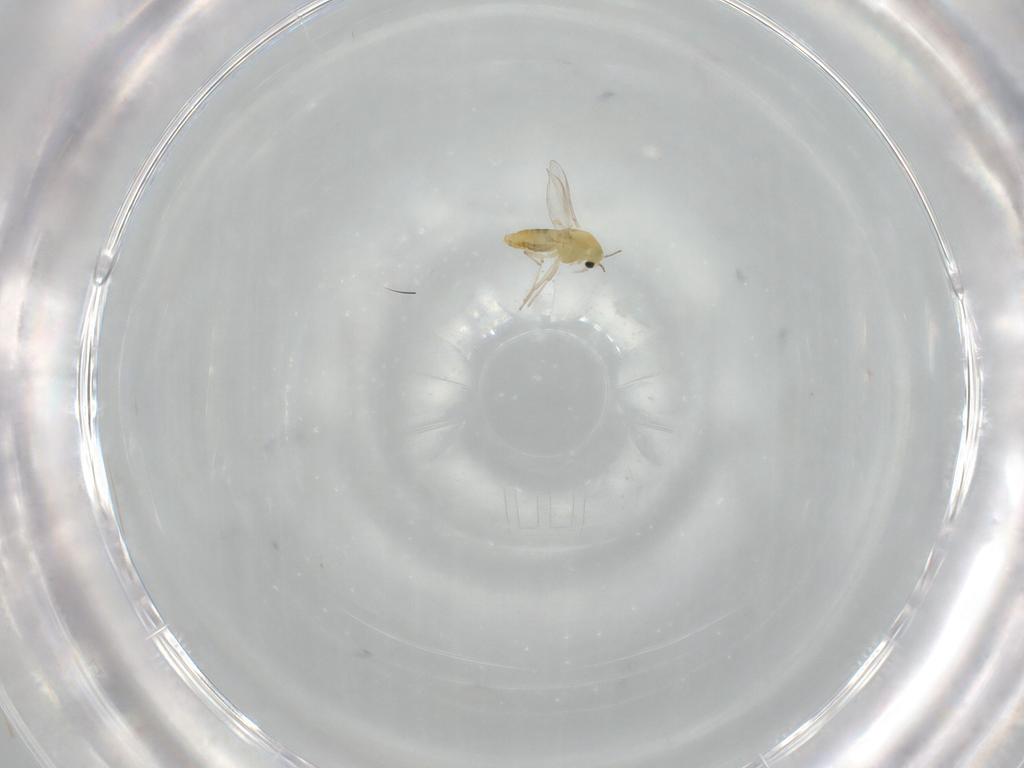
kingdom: Animalia
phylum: Arthropoda
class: Insecta
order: Diptera
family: Chironomidae
